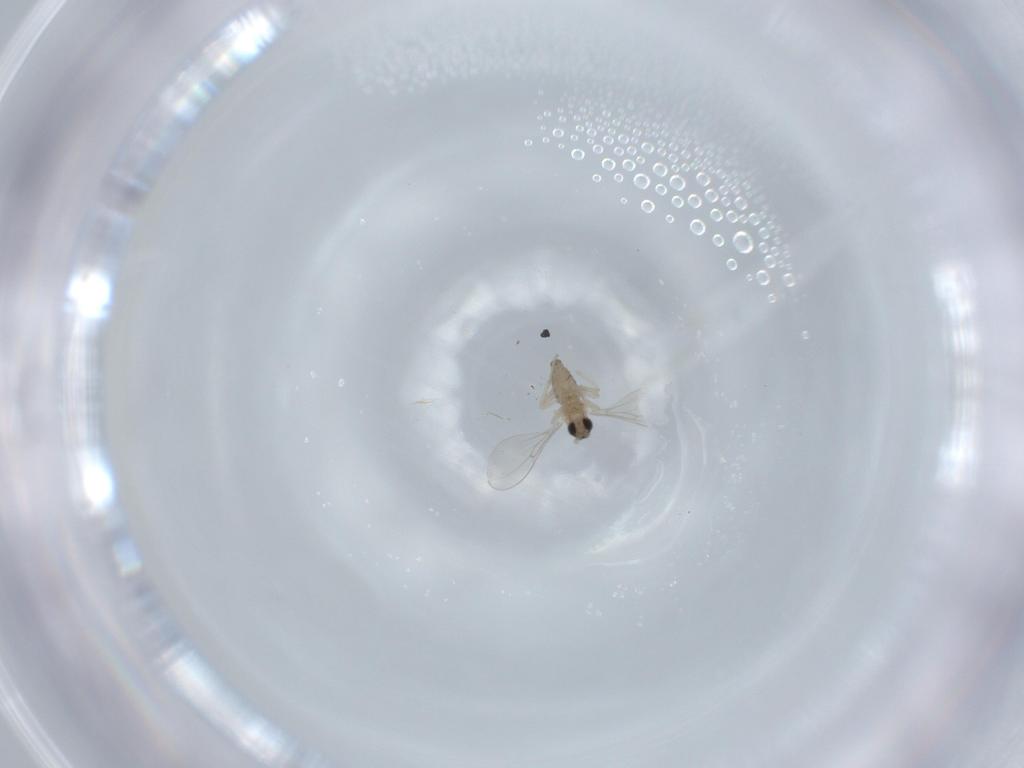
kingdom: Animalia
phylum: Arthropoda
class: Insecta
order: Diptera
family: Cecidomyiidae
